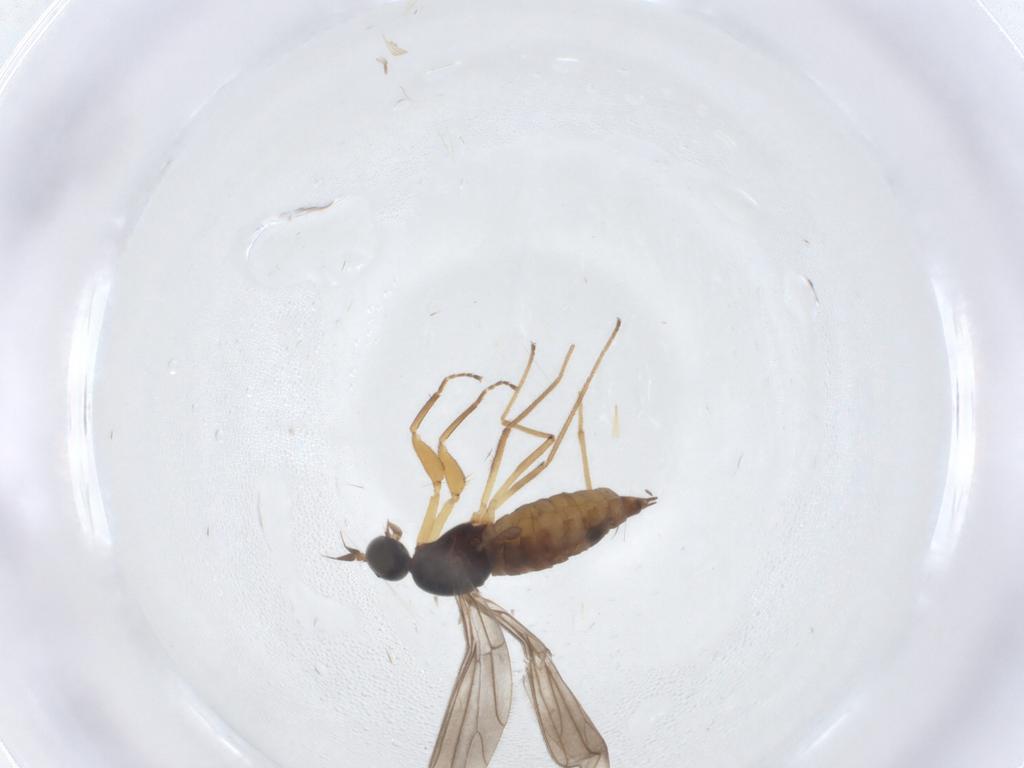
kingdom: Animalia
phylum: Arthropoda
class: Insecta
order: Diptera
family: Empididae
